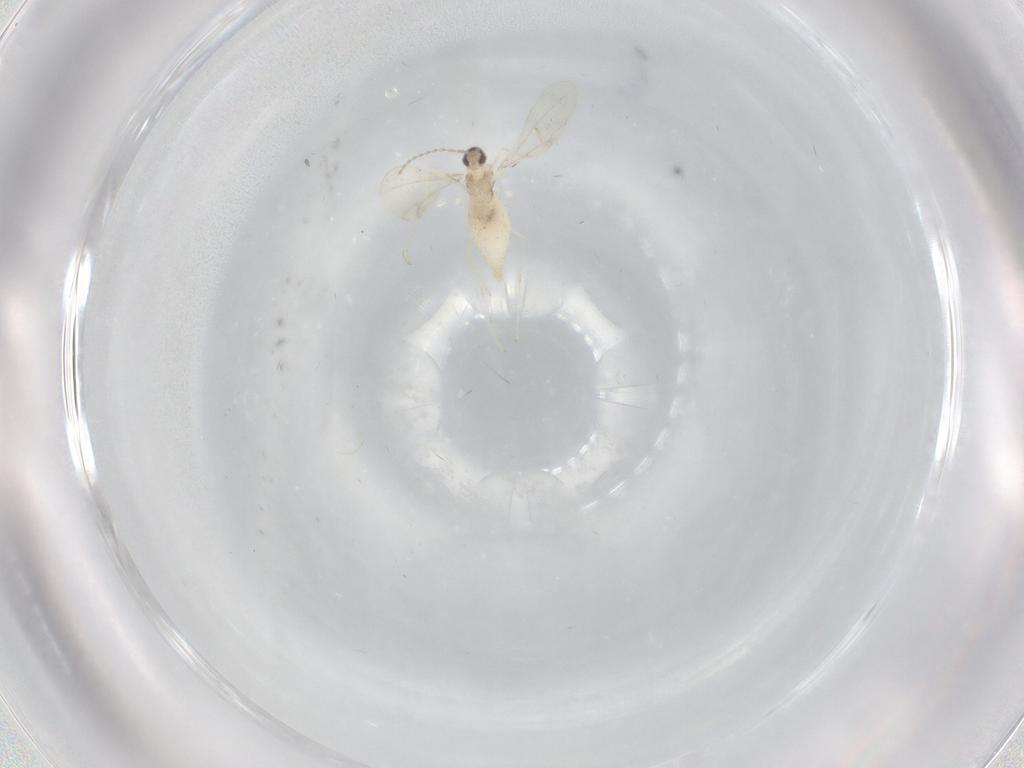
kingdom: Animalia
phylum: Arthropoda
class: Insecta
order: Diptera
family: Cecidomyiidae
